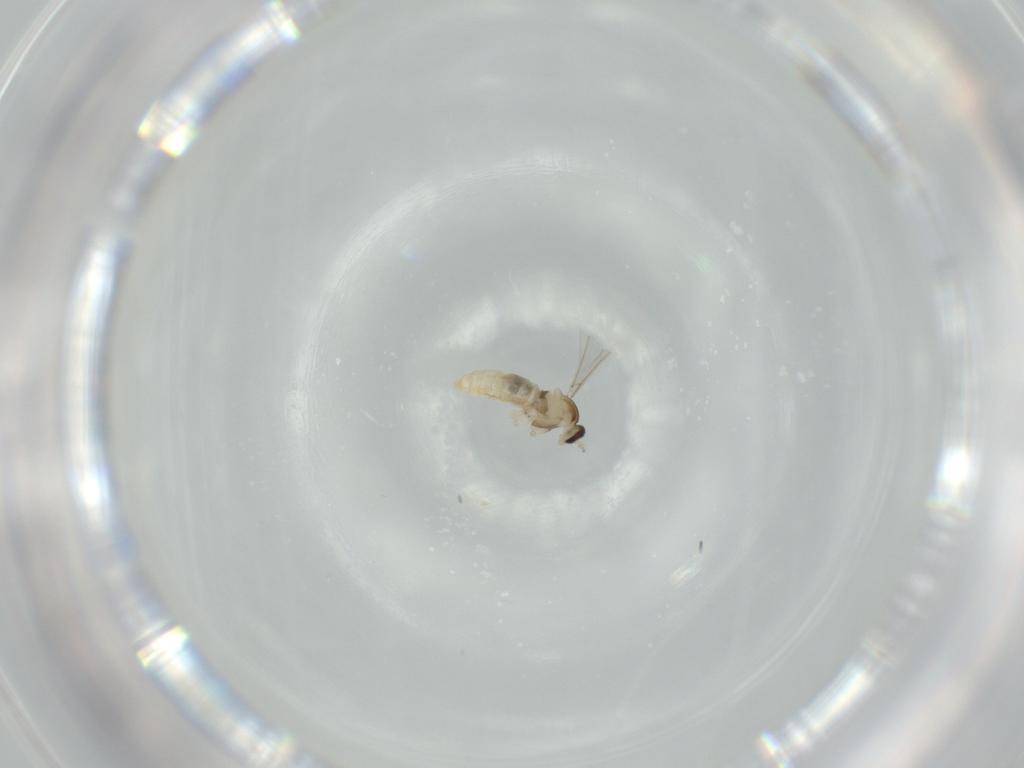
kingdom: Animalia
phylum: Arthropoda
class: Insecta
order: Diptera
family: Cecidomyiidae
